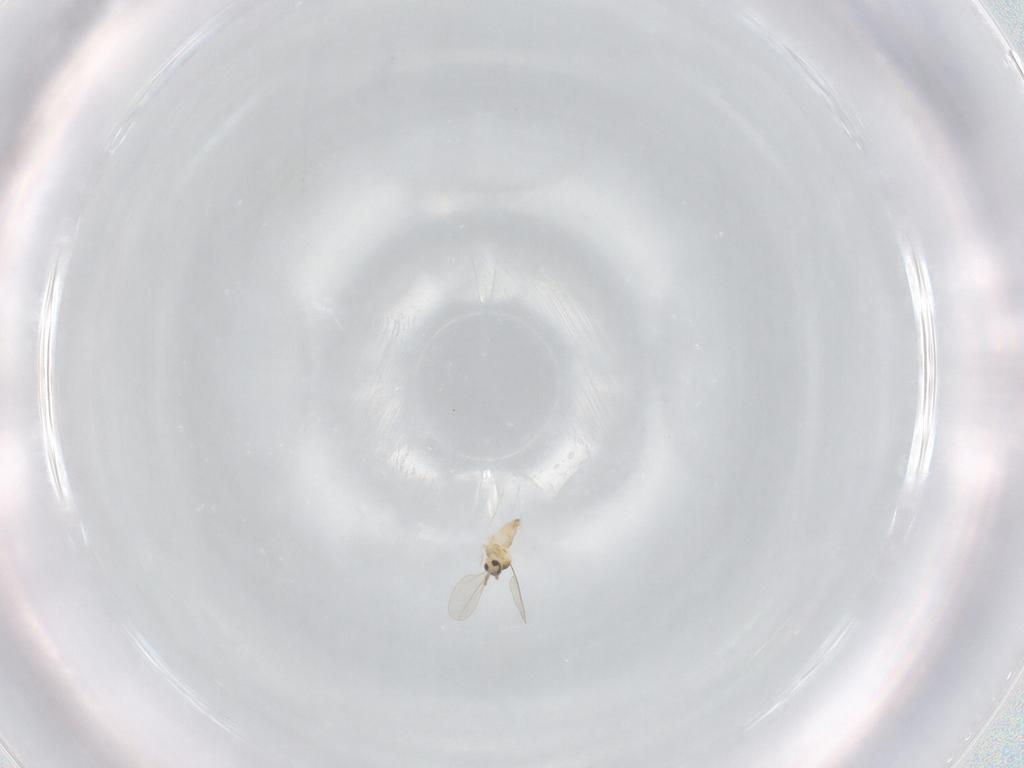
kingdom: Animalia
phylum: Arthropoda
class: Insecta
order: Diptera
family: Cecidomyiidae
